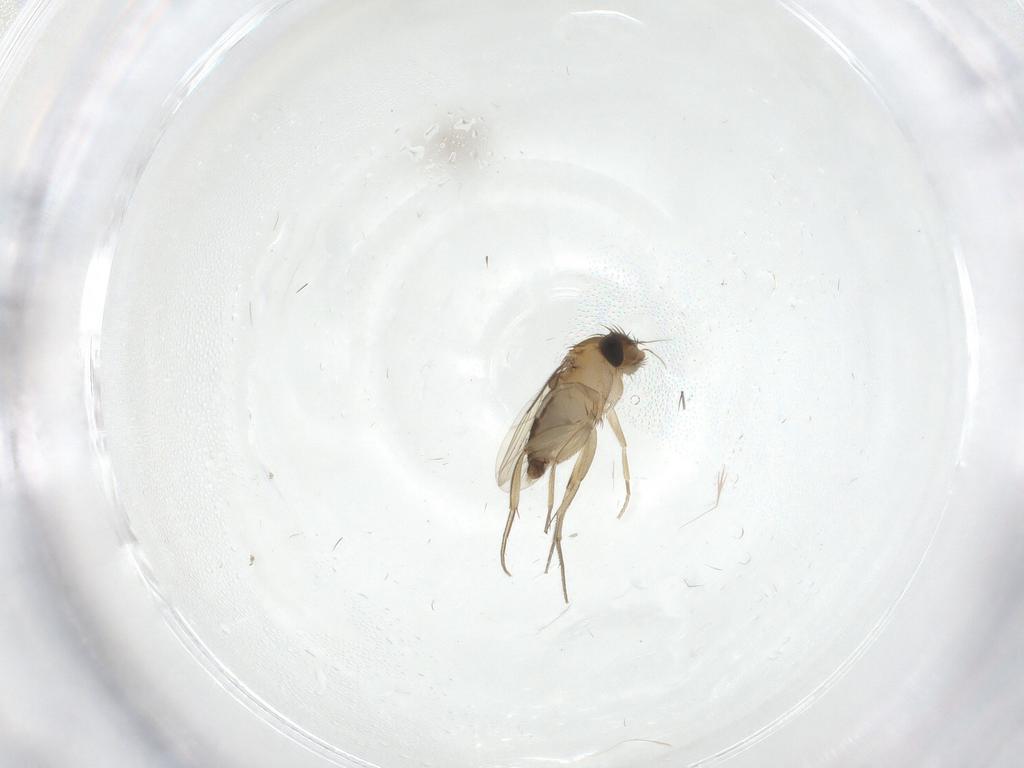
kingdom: Animalia
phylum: Arthropoda
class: Insecta
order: Diptera
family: Phoridae
